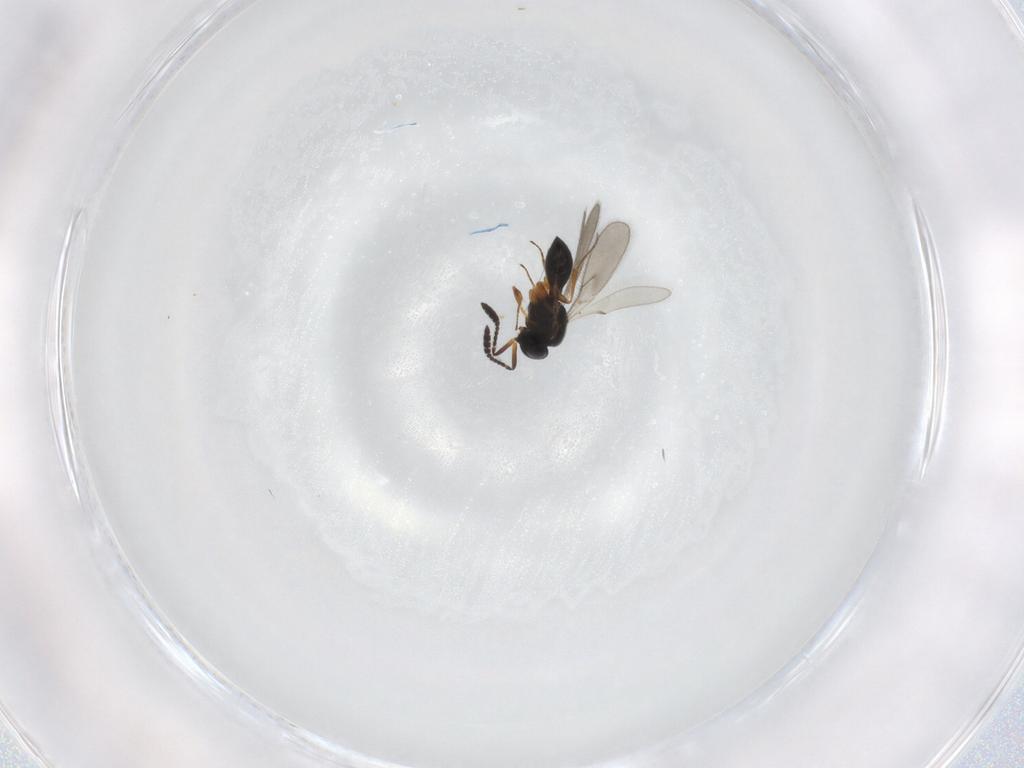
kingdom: Animalia
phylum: Arthropoda
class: Insecta
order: Hymenoptera
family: Scelionidae
